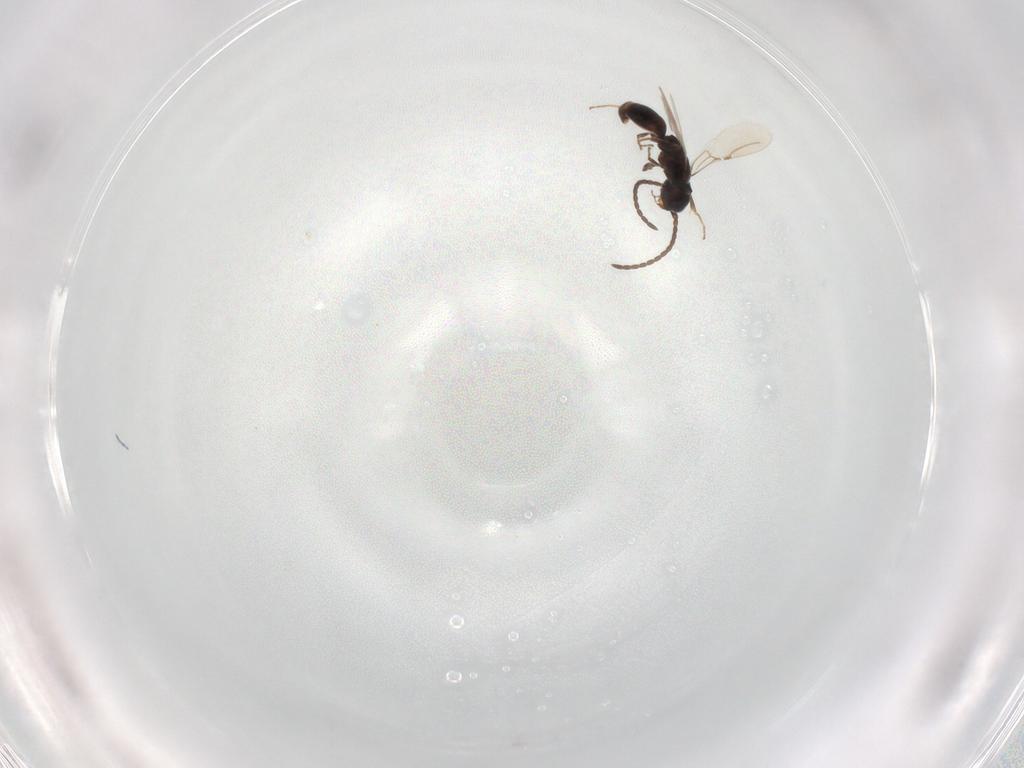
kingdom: Animalia
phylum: Arthropoda
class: Insecta
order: Hymenoptera
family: Bethylidae
